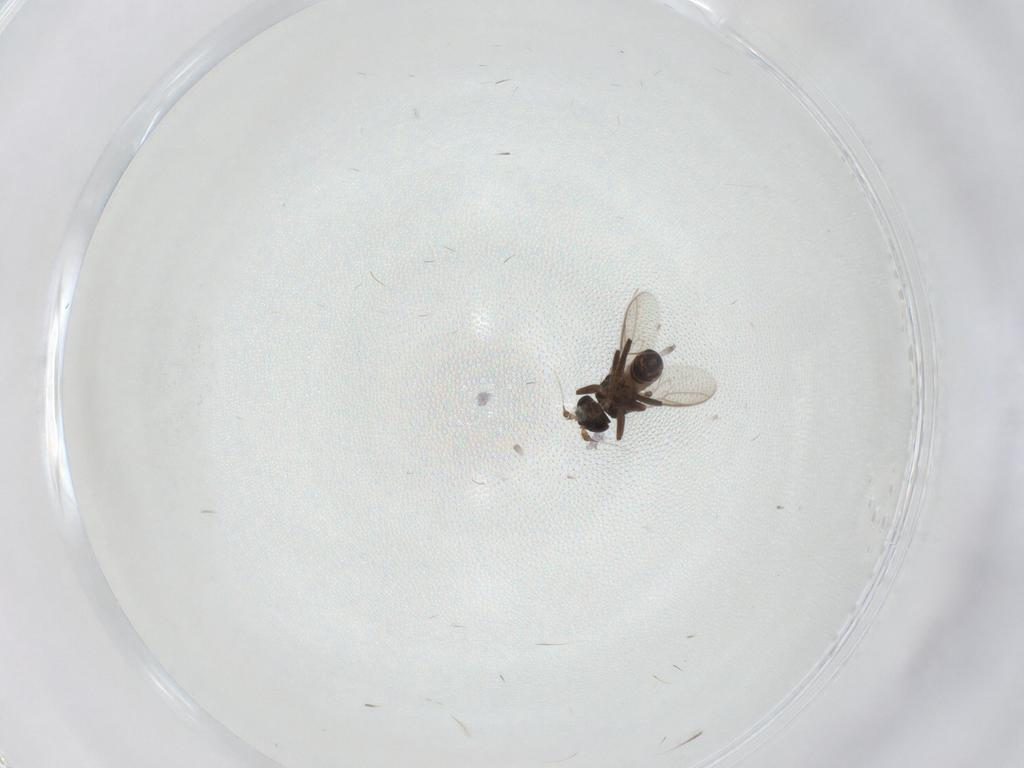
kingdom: Animalia
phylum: Arthropoda
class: Insecta
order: Diptera
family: Sphaeroceridae
